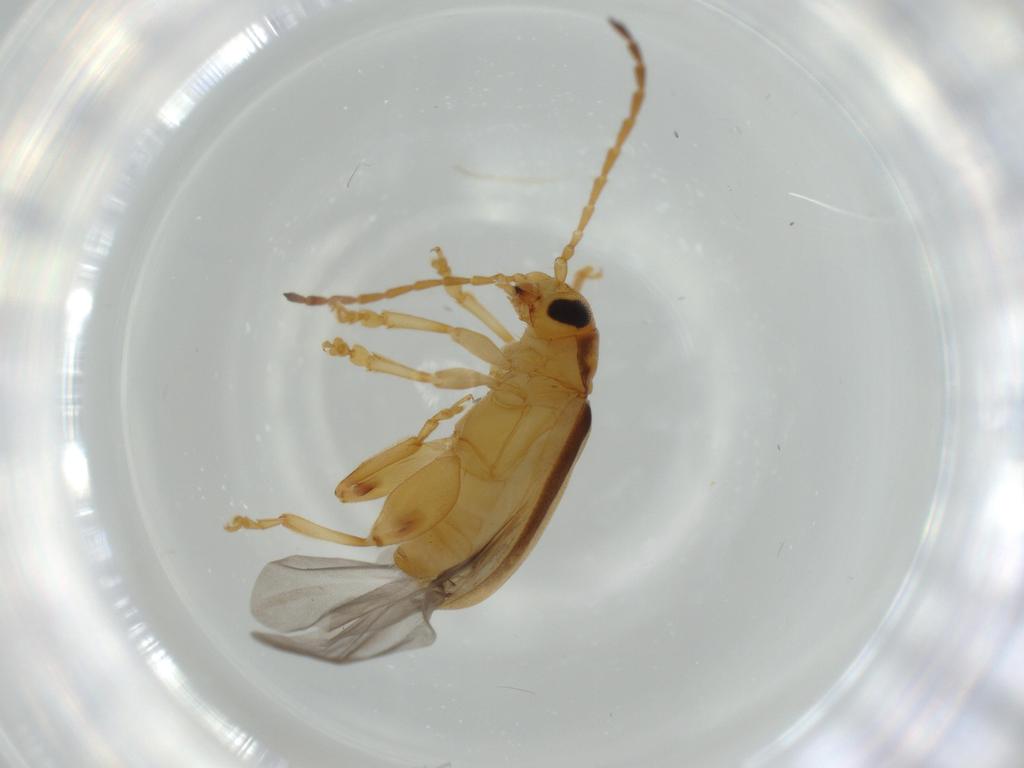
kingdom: Animalia
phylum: Arthropoda
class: Insecta
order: Coleoptera
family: Chrysomelidae
